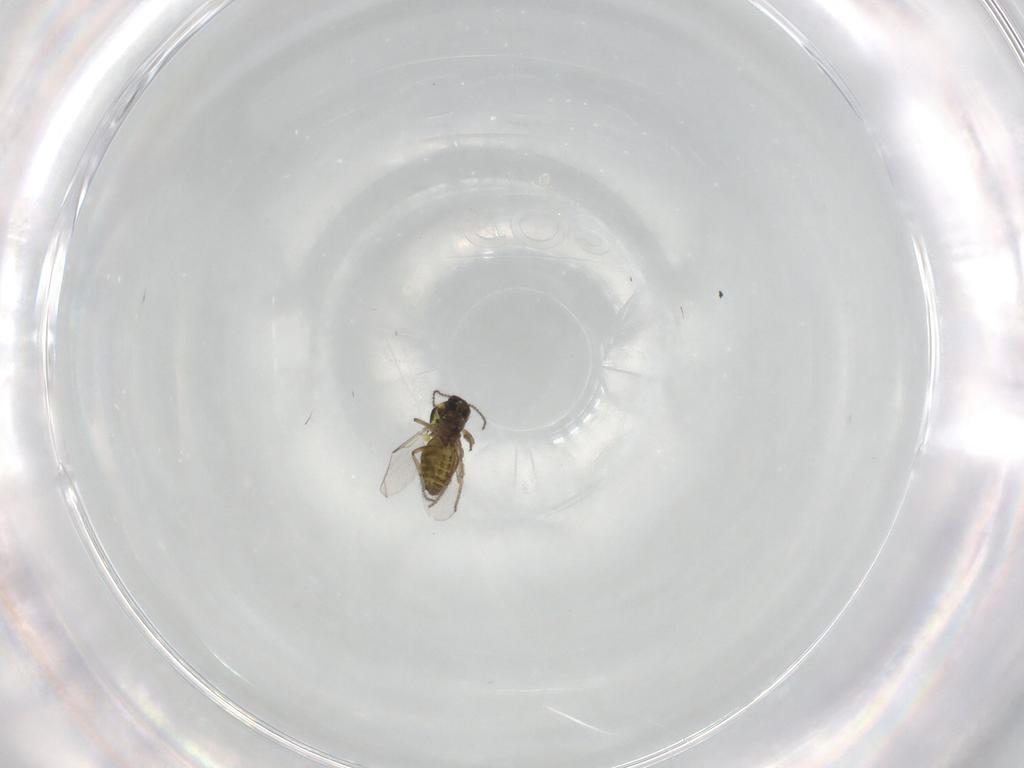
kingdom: Animalia
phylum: Arthropoda
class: Insecta
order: Diptera
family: Ceratopogonidae
